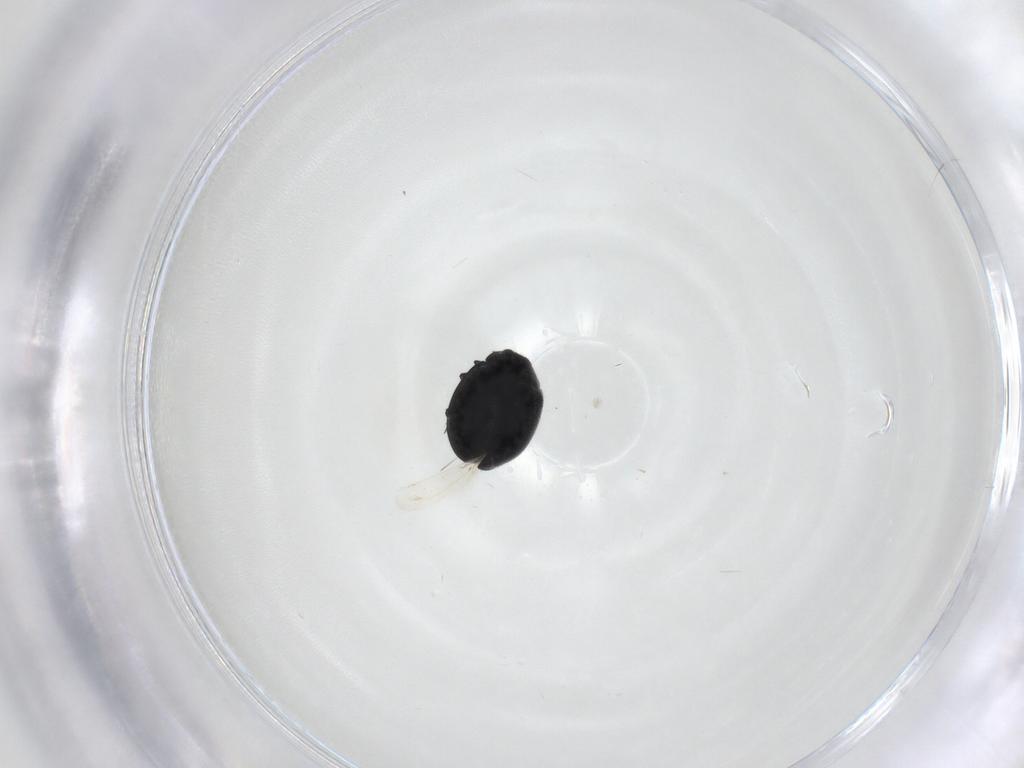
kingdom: Animalia
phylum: Arthropoda
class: Insecta
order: Coleoptera
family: Coccinellidae
